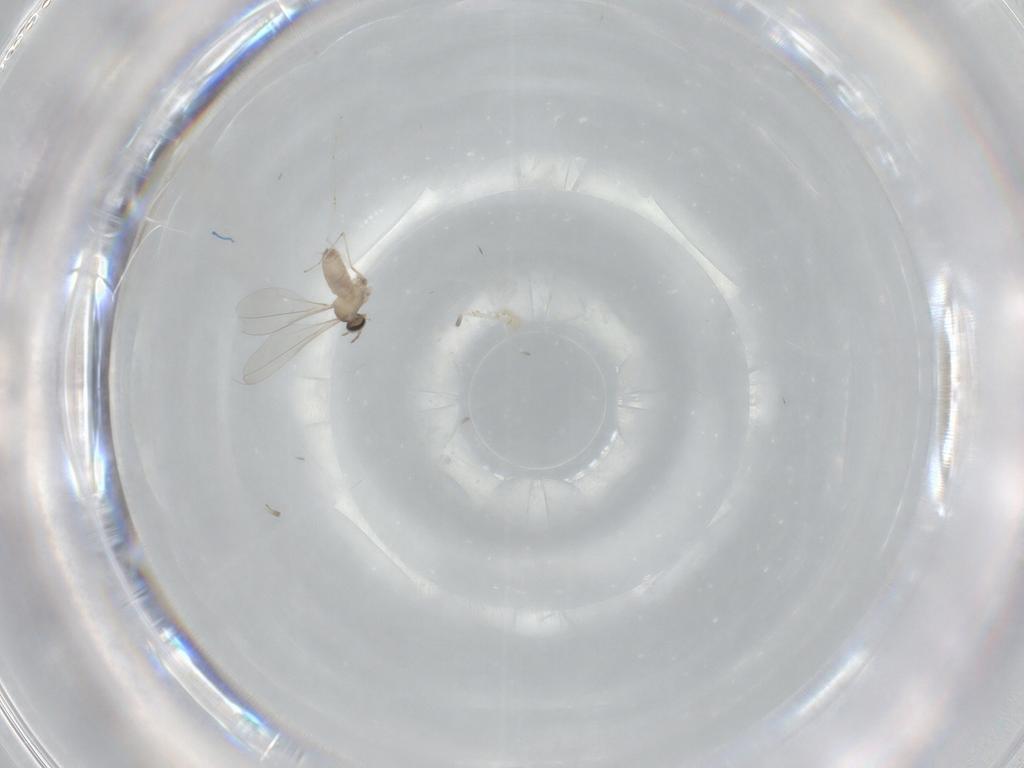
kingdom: Animalia
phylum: Arthropoda
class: Insecta
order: Diptera
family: Cecidomyiidae
